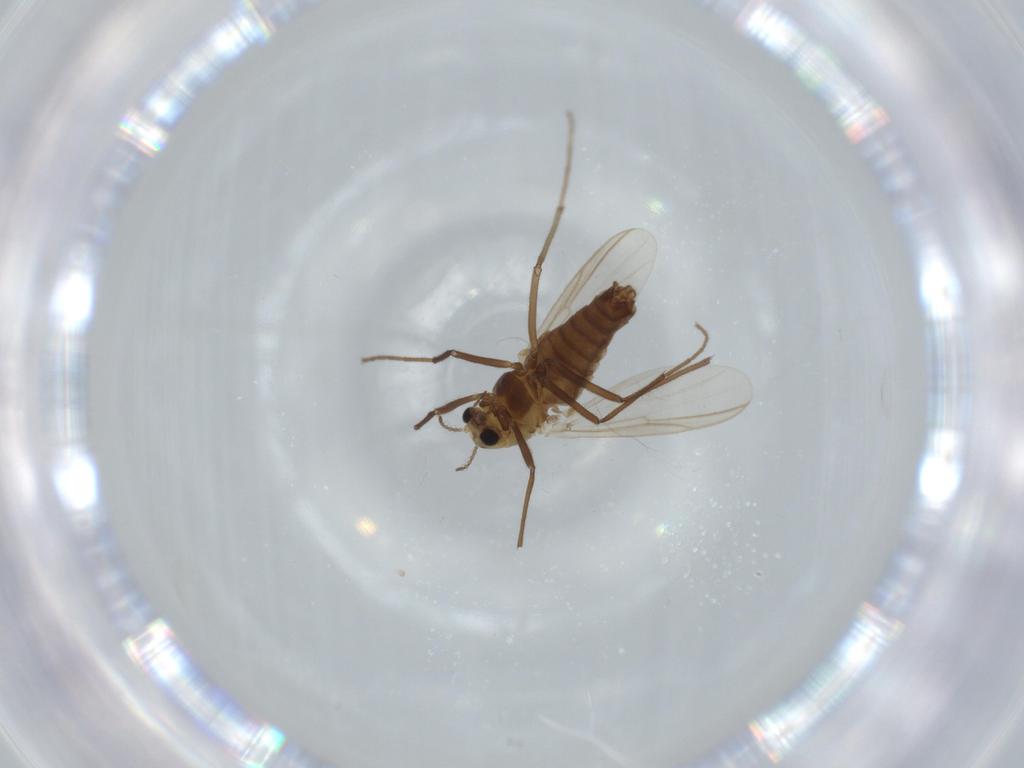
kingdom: Animalia
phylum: Arthropoda
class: Insecta
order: Diptera
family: Chironomidae
